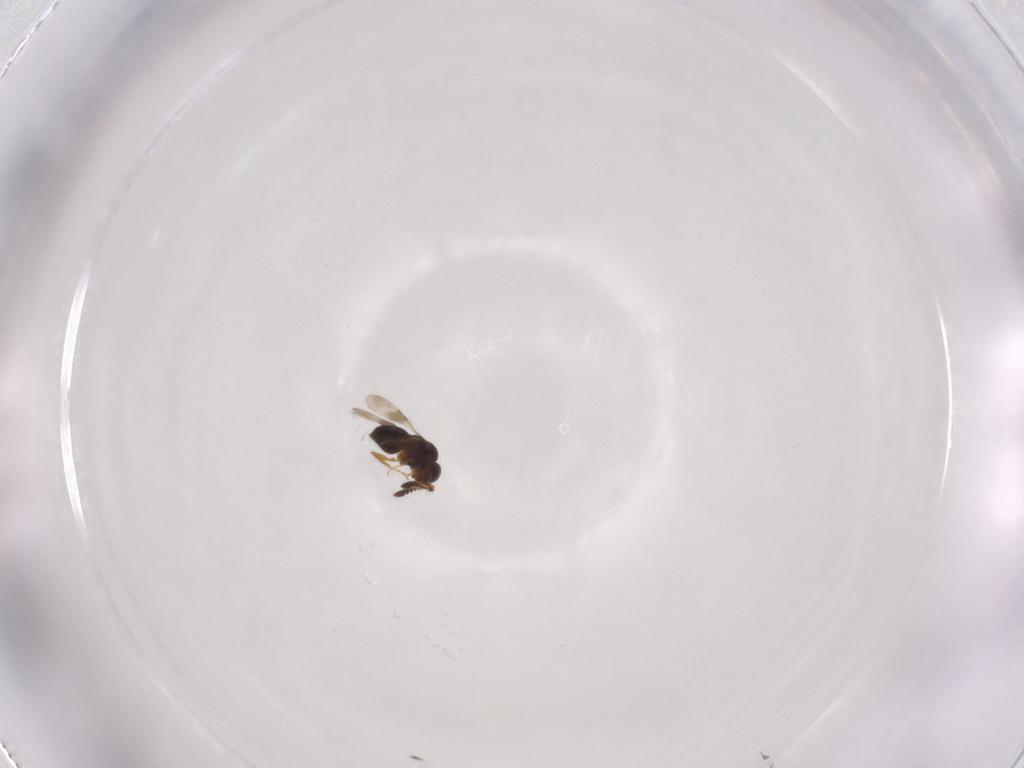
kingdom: Animalia
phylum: Arthropoda
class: Insecta
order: Hymenoptera
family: Ceraphronidae
